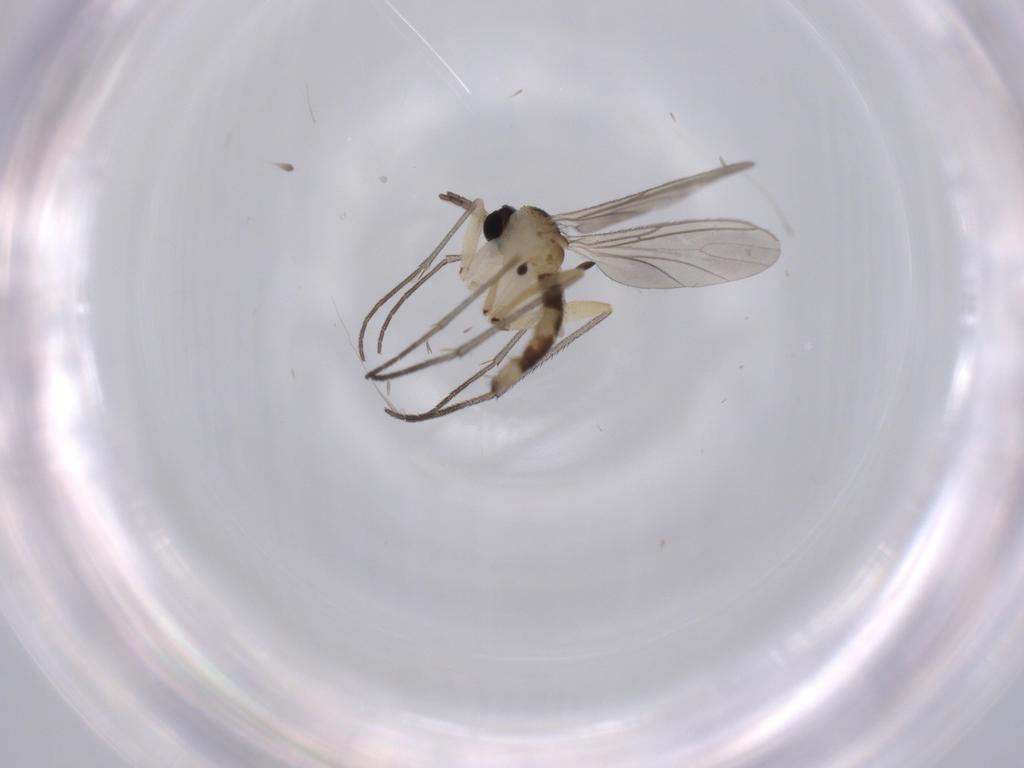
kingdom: Animalia
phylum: Arthropoda
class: Insecta
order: Diptera
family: Sciaridae
